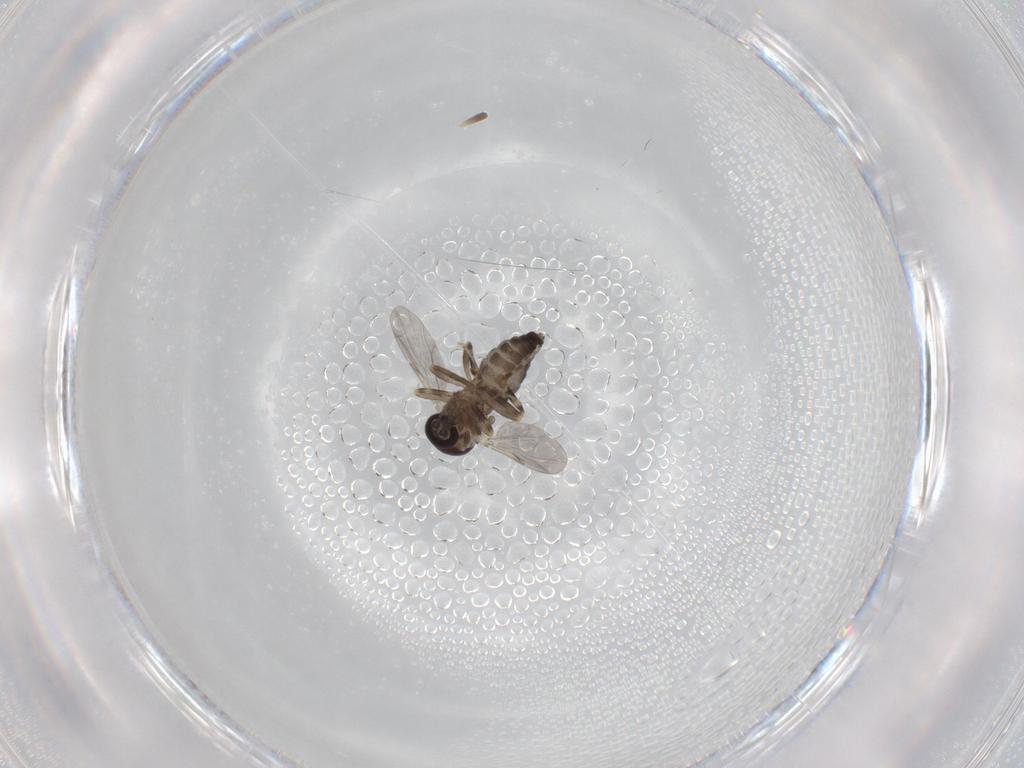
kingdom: Animalia
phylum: Arthropoda
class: Insecta
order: Diptera
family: Ceratopogonidae
